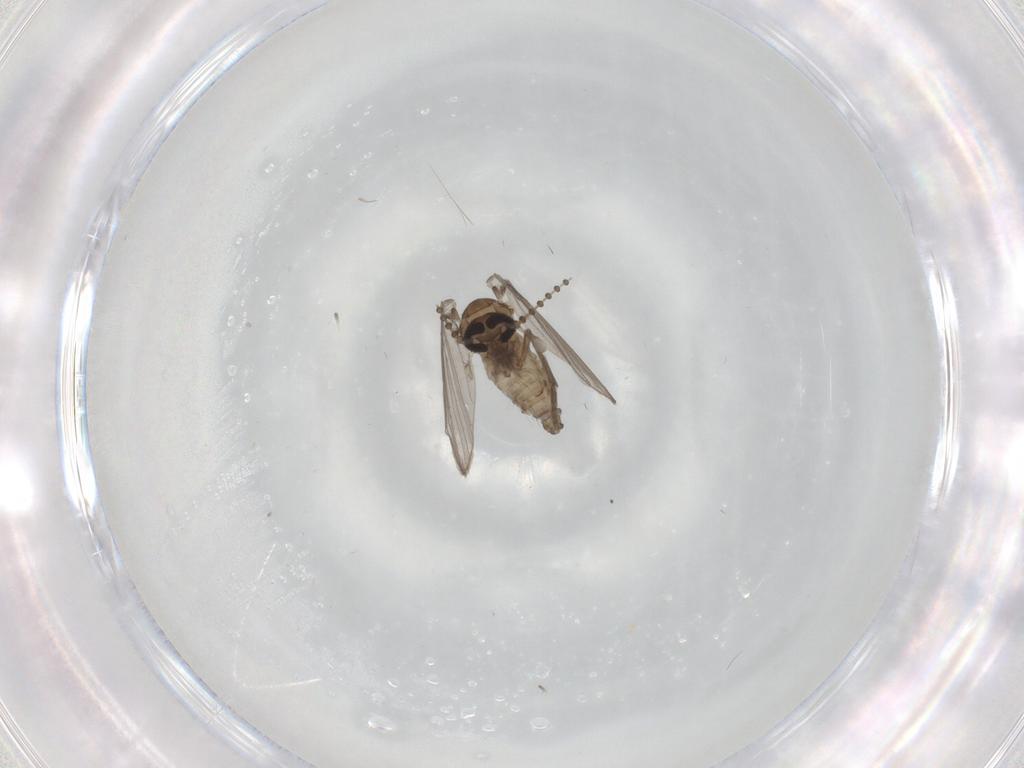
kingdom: Animalia
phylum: Arthropoda
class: Insecta
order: Diptera
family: Psychodidae
